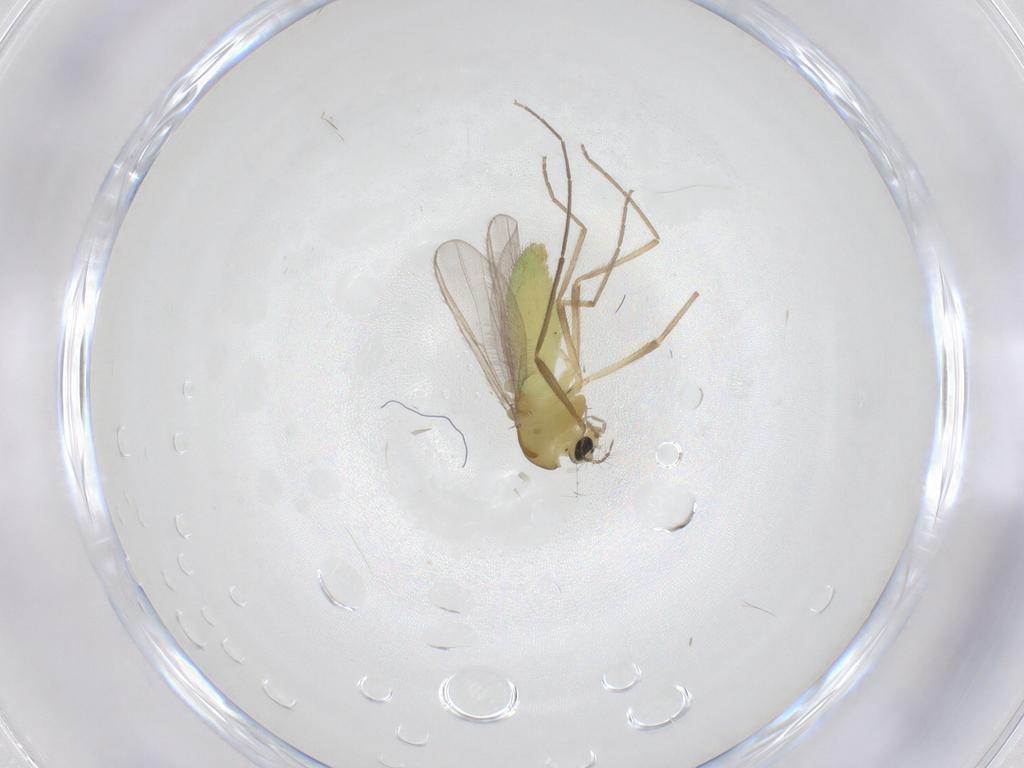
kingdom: Animalia
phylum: Arthropoda
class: Insecta
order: Diptera
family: Chironomidae
